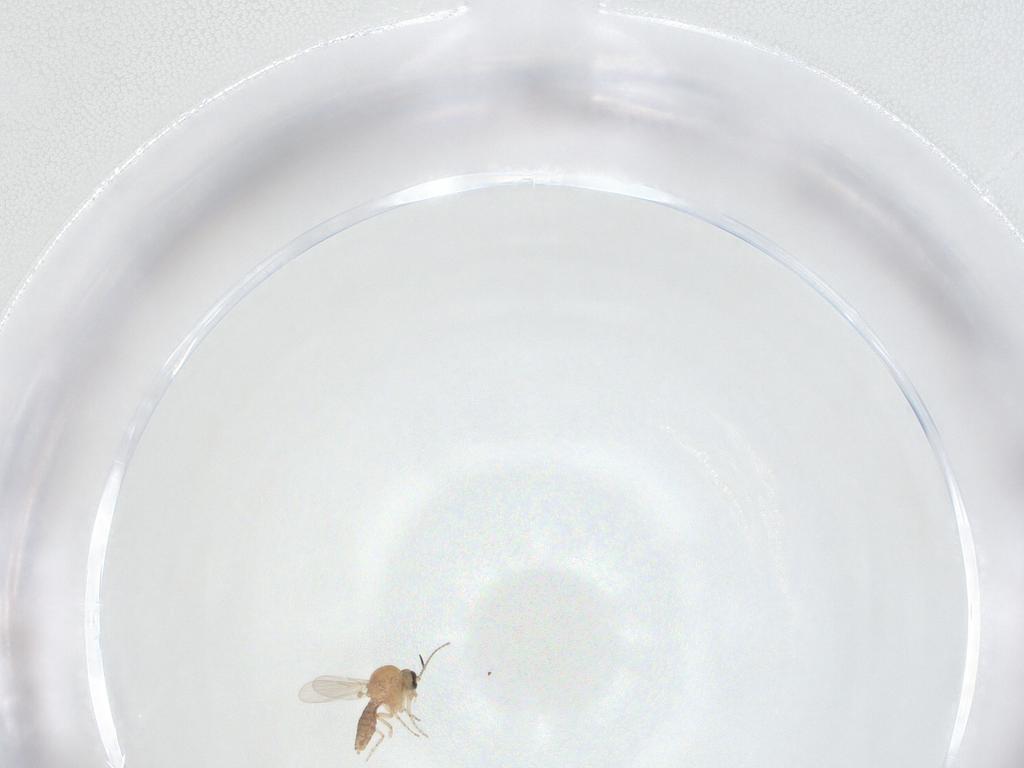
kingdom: Animalia
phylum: Arthropoda
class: Insecta
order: Diptera
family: Ceratopogonidae
